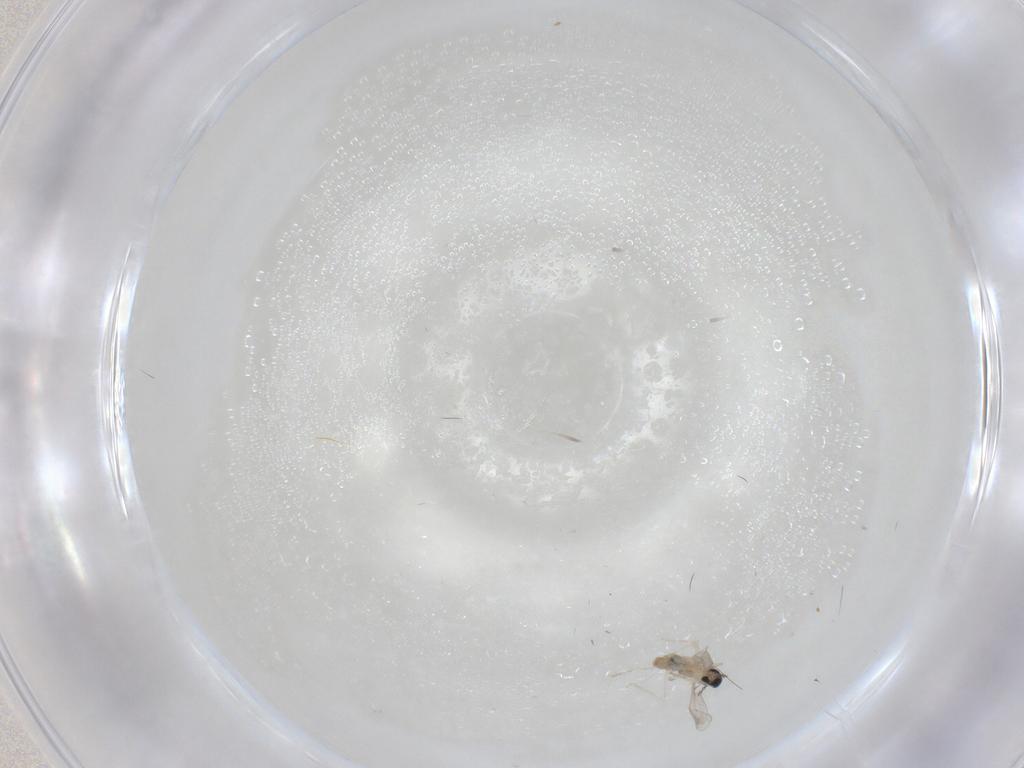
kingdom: Animalia
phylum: Arthropoda
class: Insecta
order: Diptera
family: Cecidomyiidae
